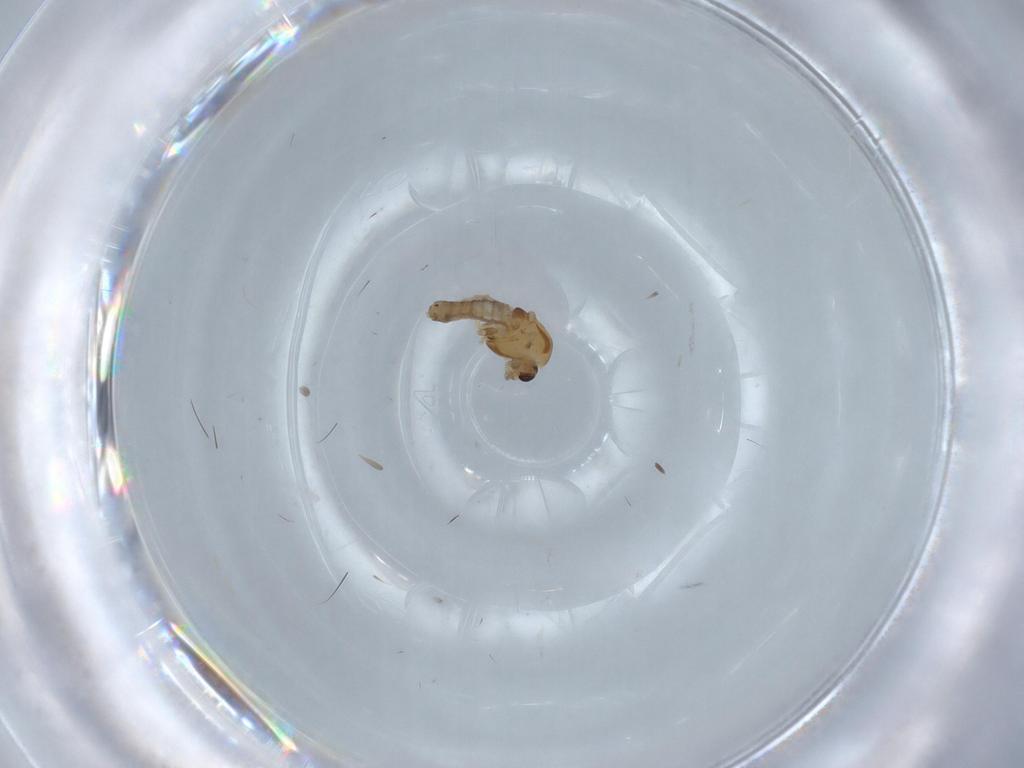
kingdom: Animalia
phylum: Arthropoda
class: Insecta
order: Diptera
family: Chironomidae
